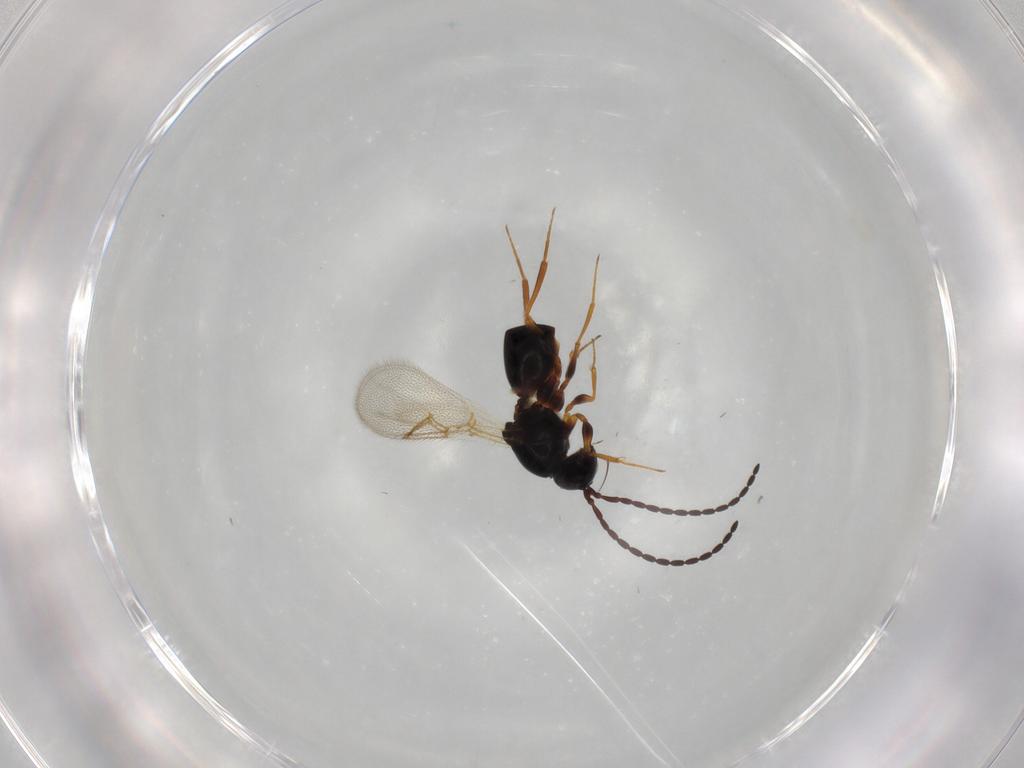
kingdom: Animalia
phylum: Arthropoda
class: Insecta
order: Hymenoptera
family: Figitidae
